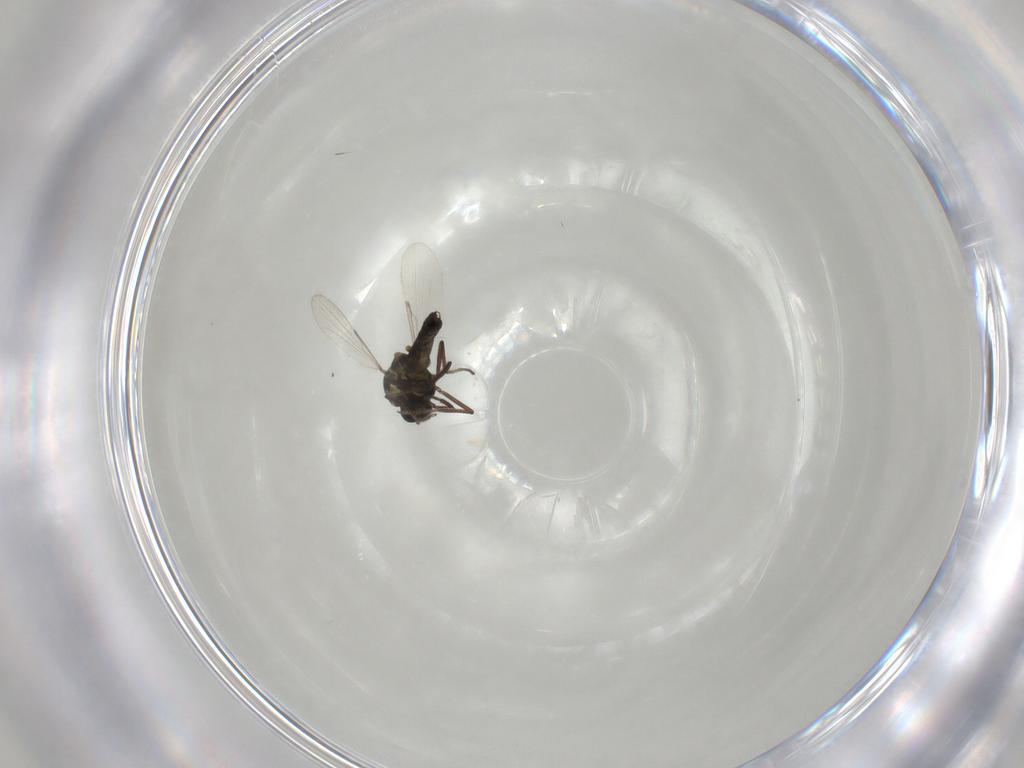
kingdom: Animalia
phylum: Arthropoda
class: Insecta
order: Diptera
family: Ceratopogonidae
